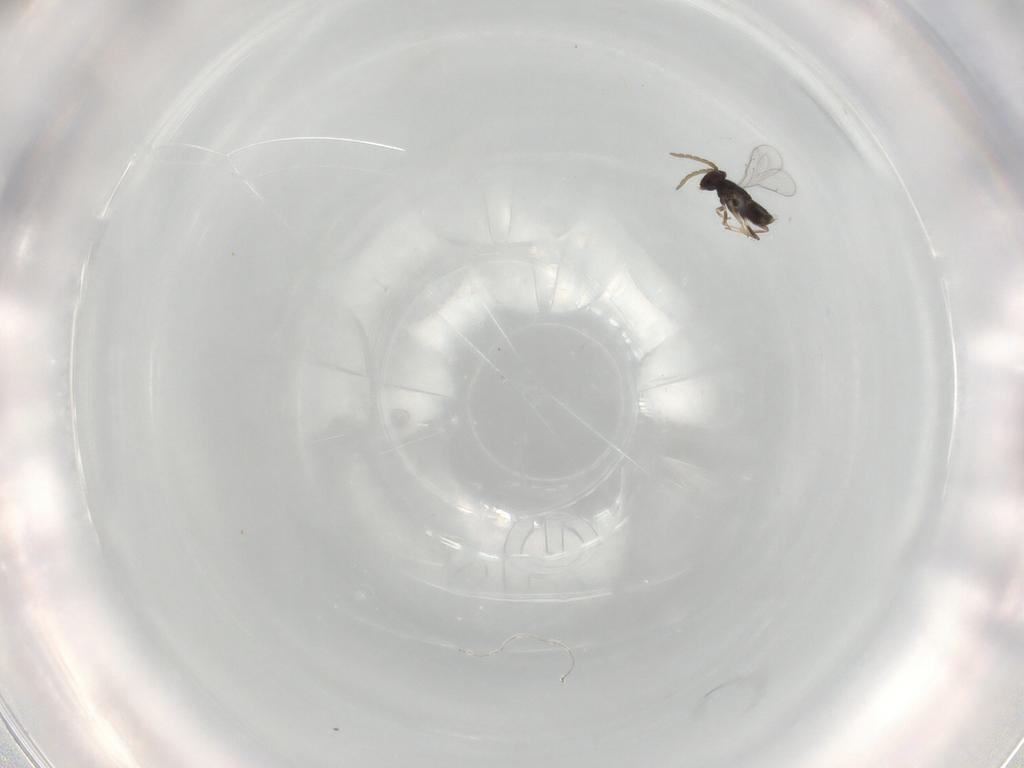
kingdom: Animalia
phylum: Arthropoda
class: Insecta
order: Hymenoptera
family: Aphelinidae
